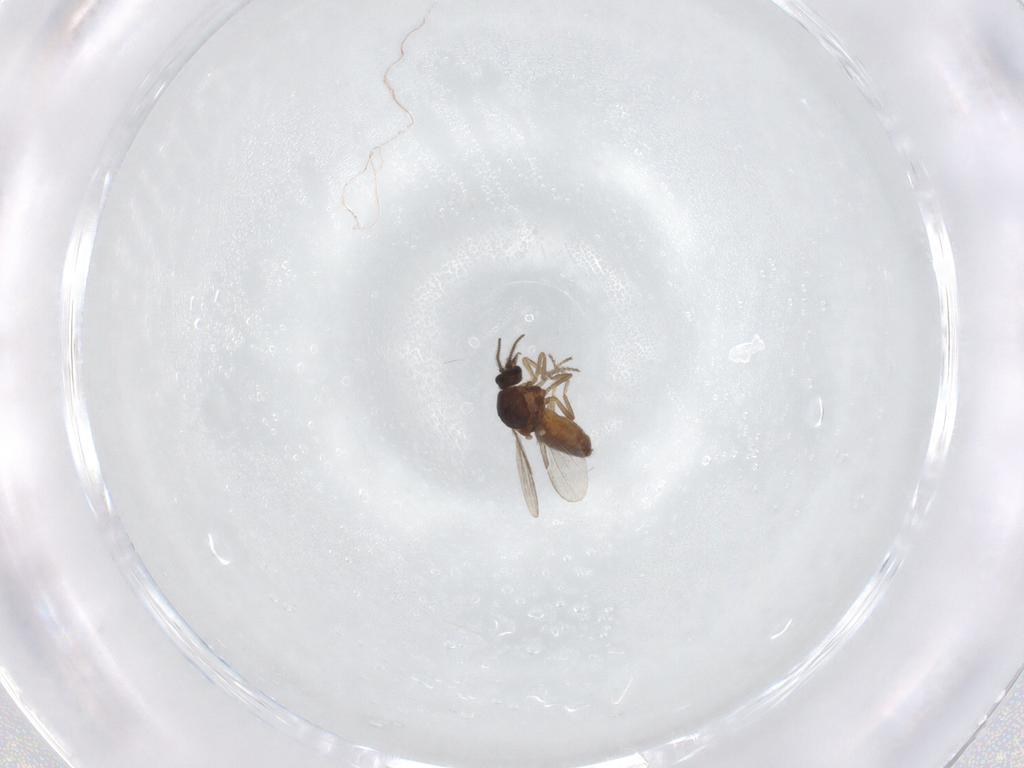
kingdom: Animalia
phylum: Arthropoda
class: Insecta
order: Diptera
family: Ceratopogonidae
